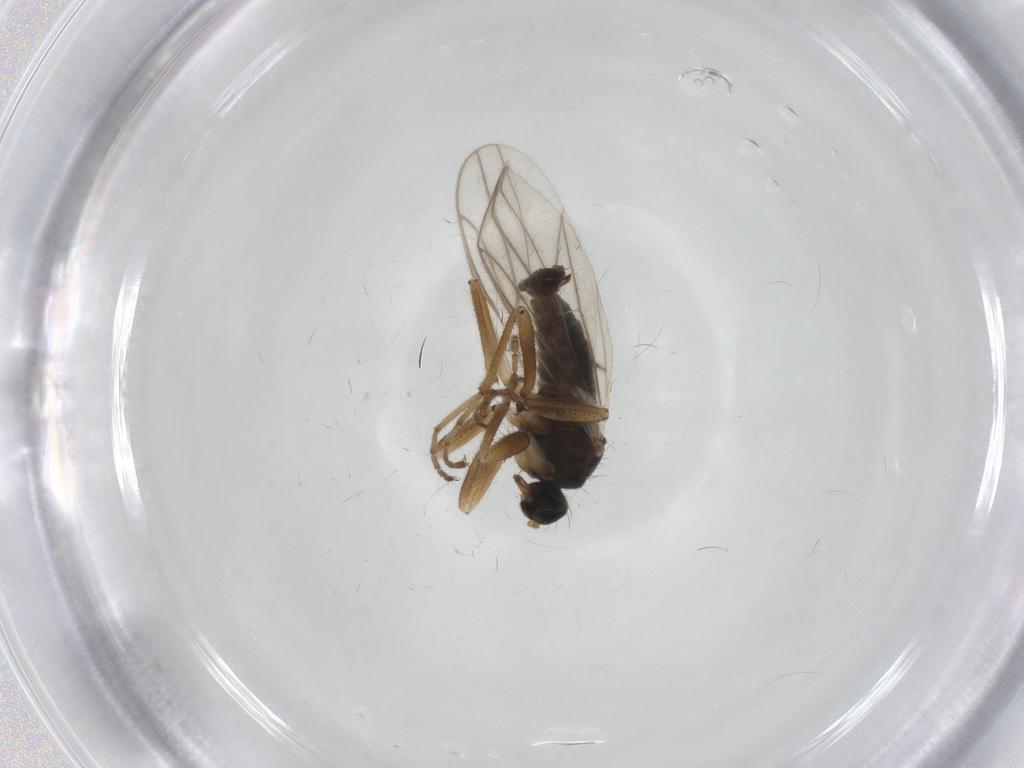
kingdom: Animalia
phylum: Arthropoda
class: Insecta
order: Diptera
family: Hybotidae
